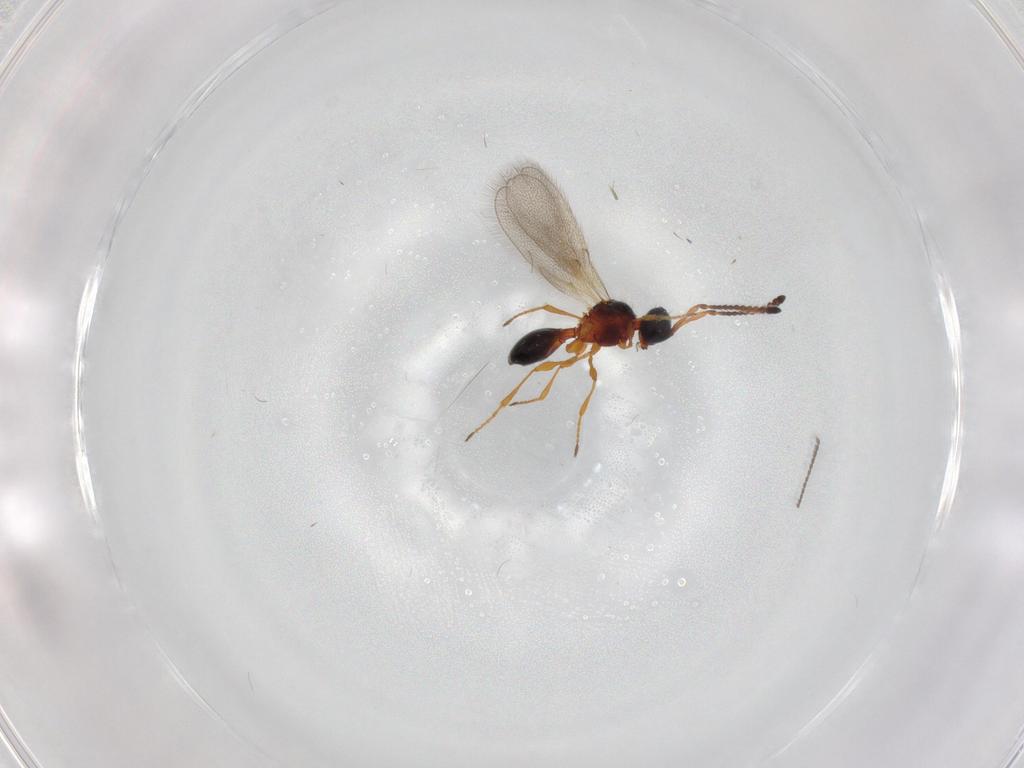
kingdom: Animalia
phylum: Arthropoda
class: Insecta
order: Hymenoptera
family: Diapriidae
